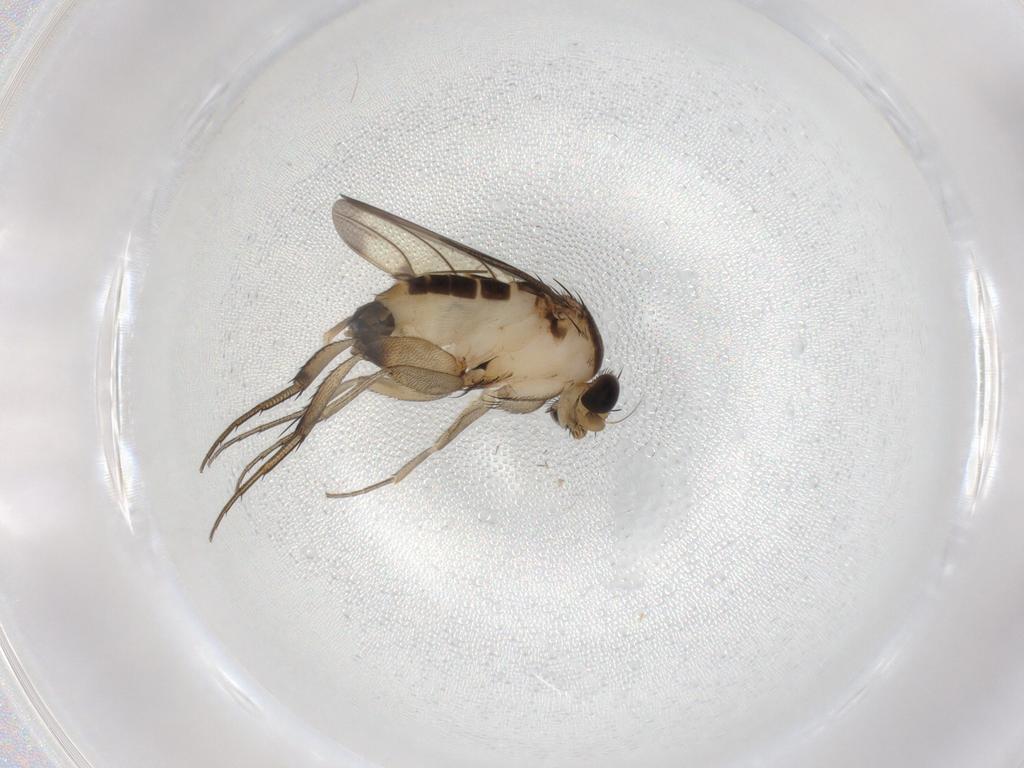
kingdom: Animalia
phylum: Arthropoda
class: Insecta
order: Diptera
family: Phoridae
